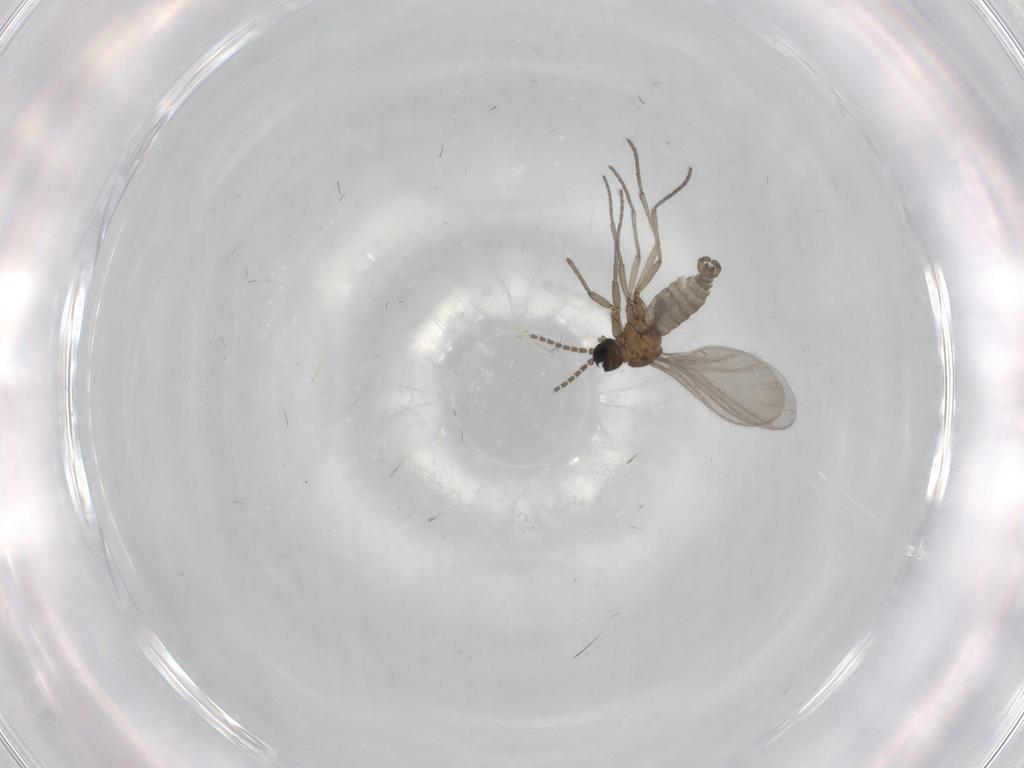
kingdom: Animalia
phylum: Arthropoda
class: Insecta
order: Diptera
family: Sciaridae
